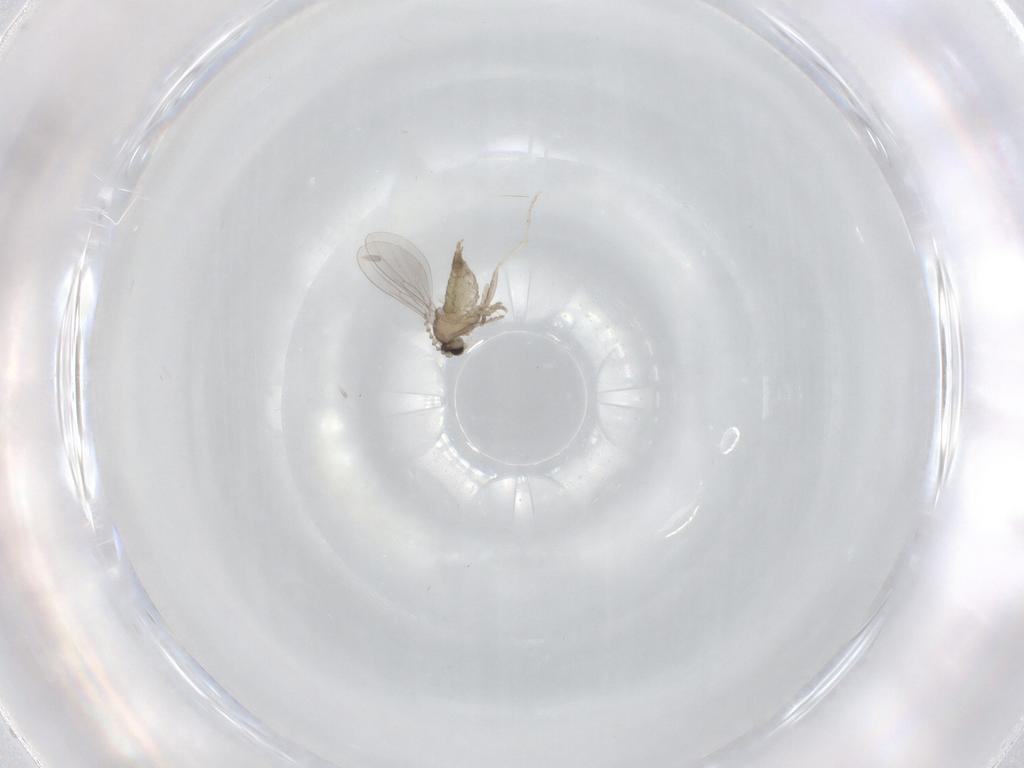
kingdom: Animalia
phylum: Arthropoda
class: Insecta
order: Diptera
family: Cecidomyiidae
